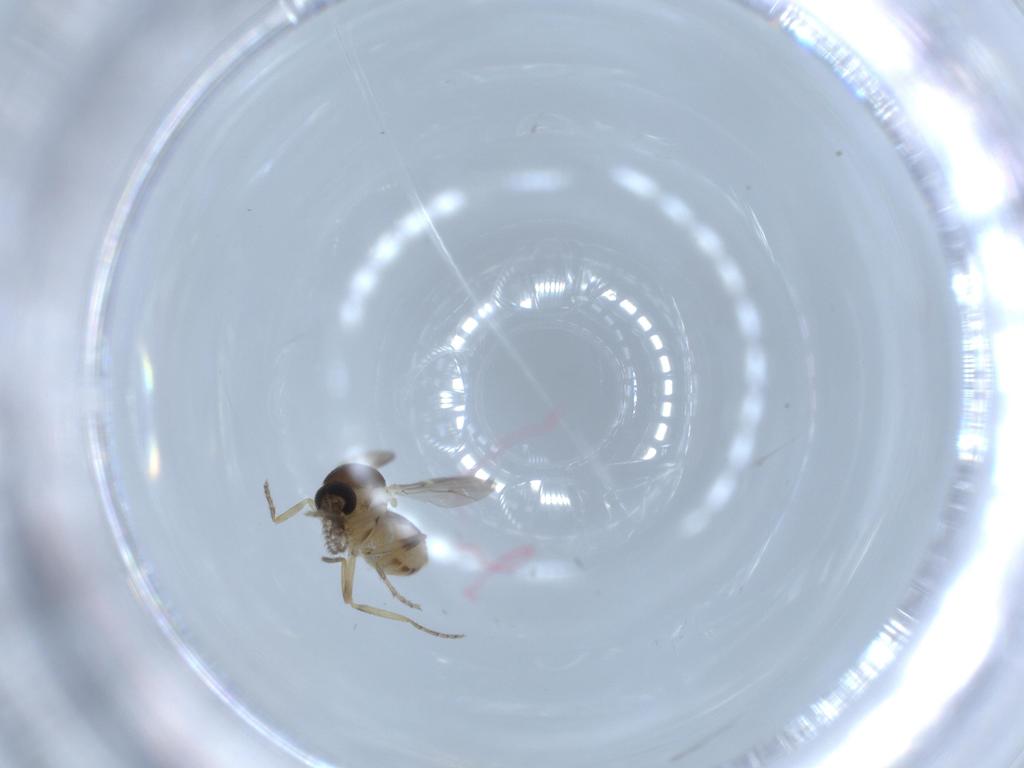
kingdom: Animalia
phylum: Arthropoda
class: Insecta
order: Diptera
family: Ceratopogonidae
